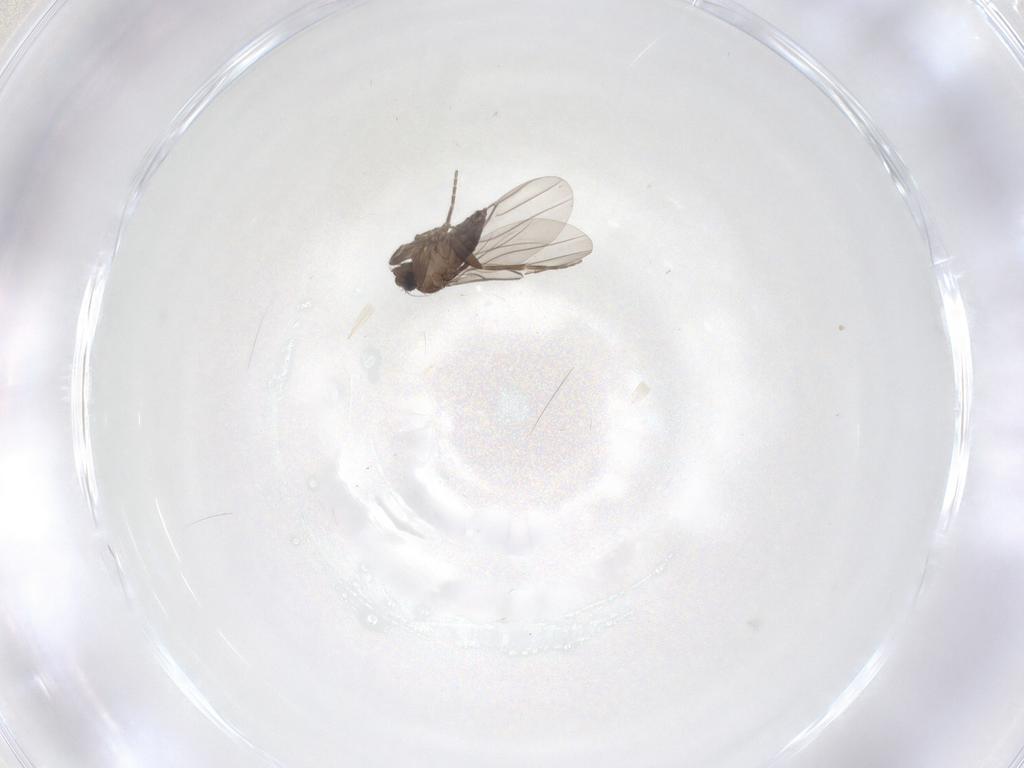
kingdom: Animalia
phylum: Arthropoda
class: Insecta
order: Diptera
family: Phoridae
